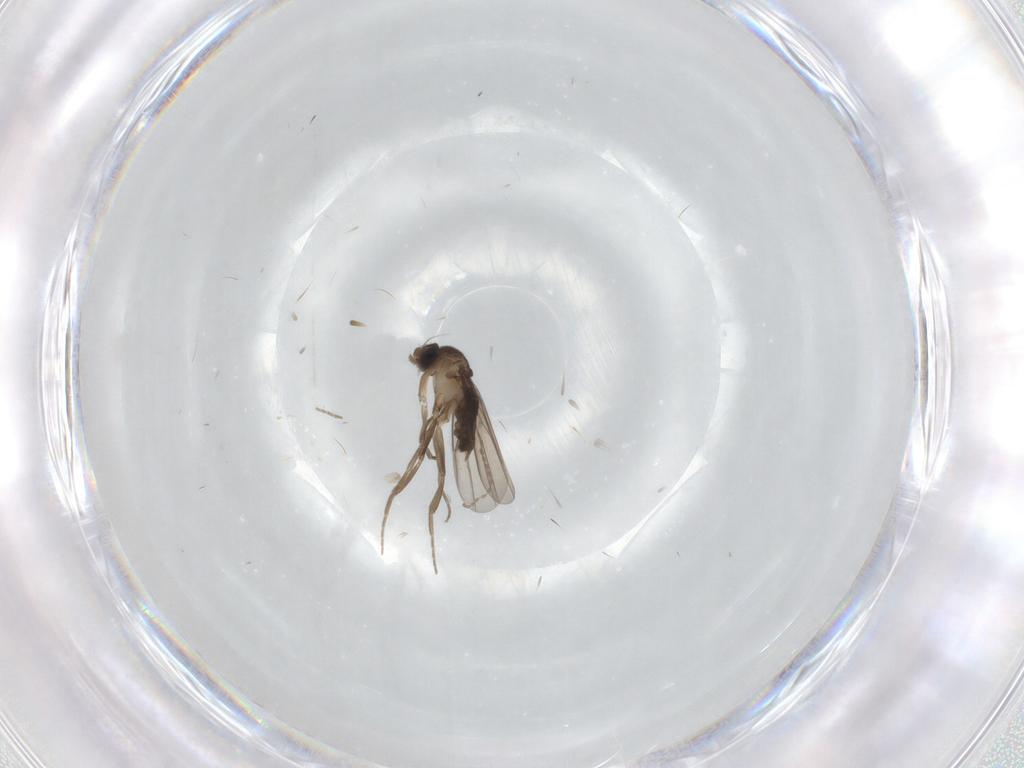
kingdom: Animalia
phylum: Arthropoda
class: Insecta
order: Diptera
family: Phoridae
